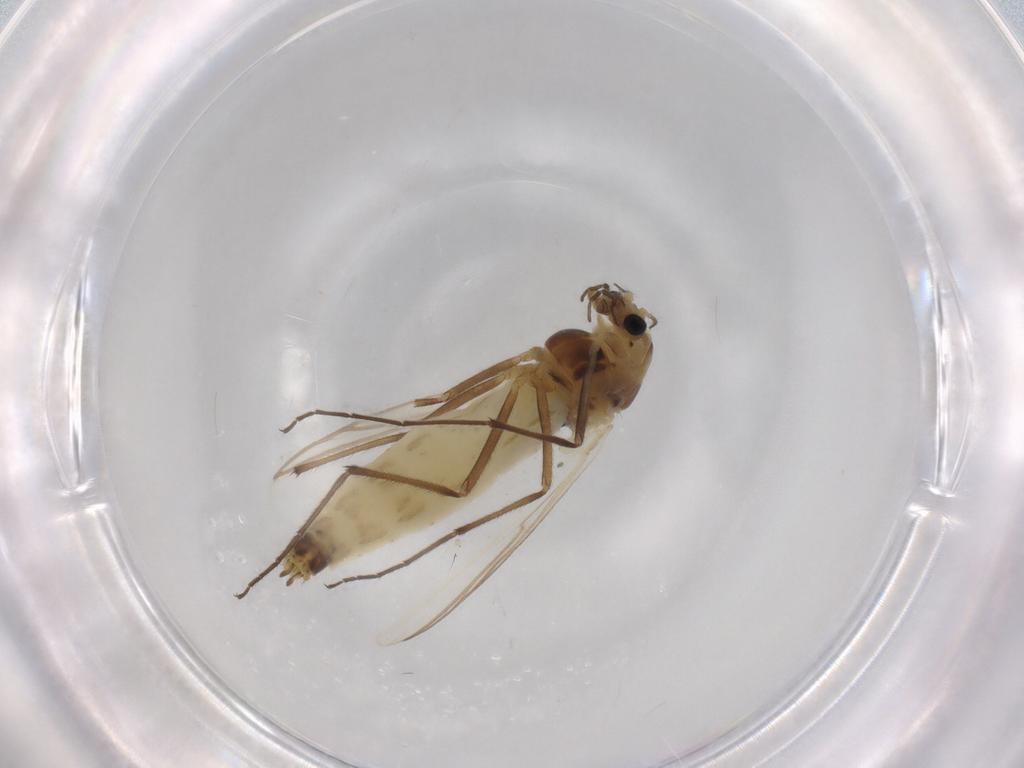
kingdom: Animalia
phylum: Arthropoda
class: Insecta
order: Diptera
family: Chironomidae
